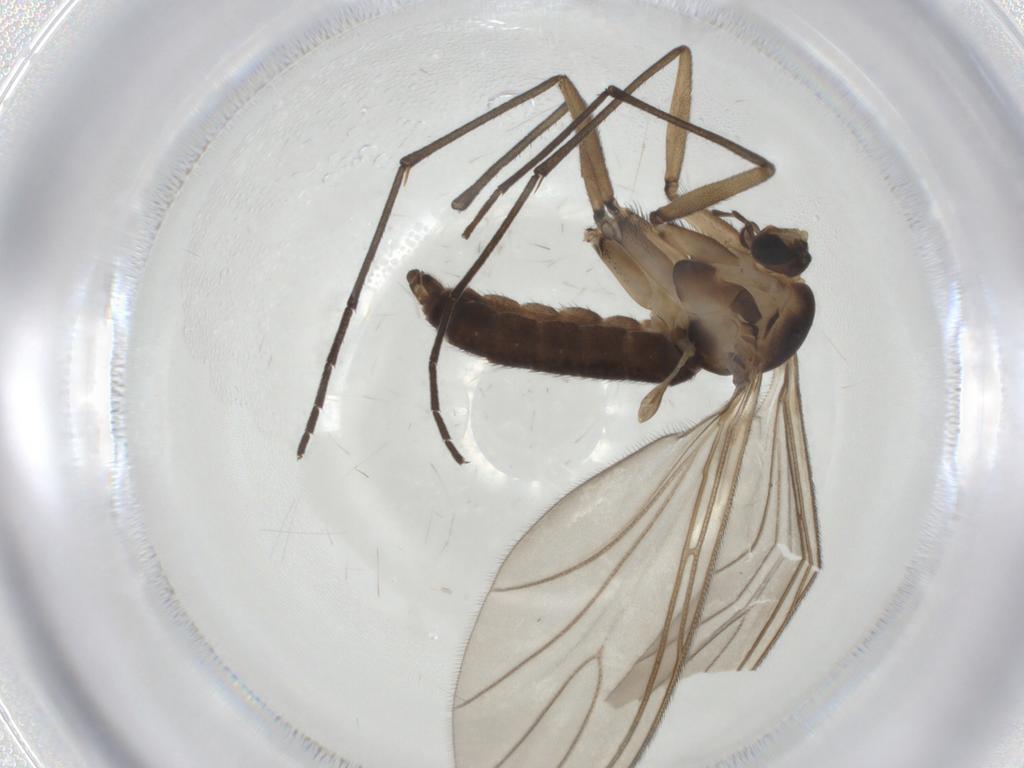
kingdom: Animalia
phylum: Arthropoda
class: Insecta
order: Diptera
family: Sciaridae
